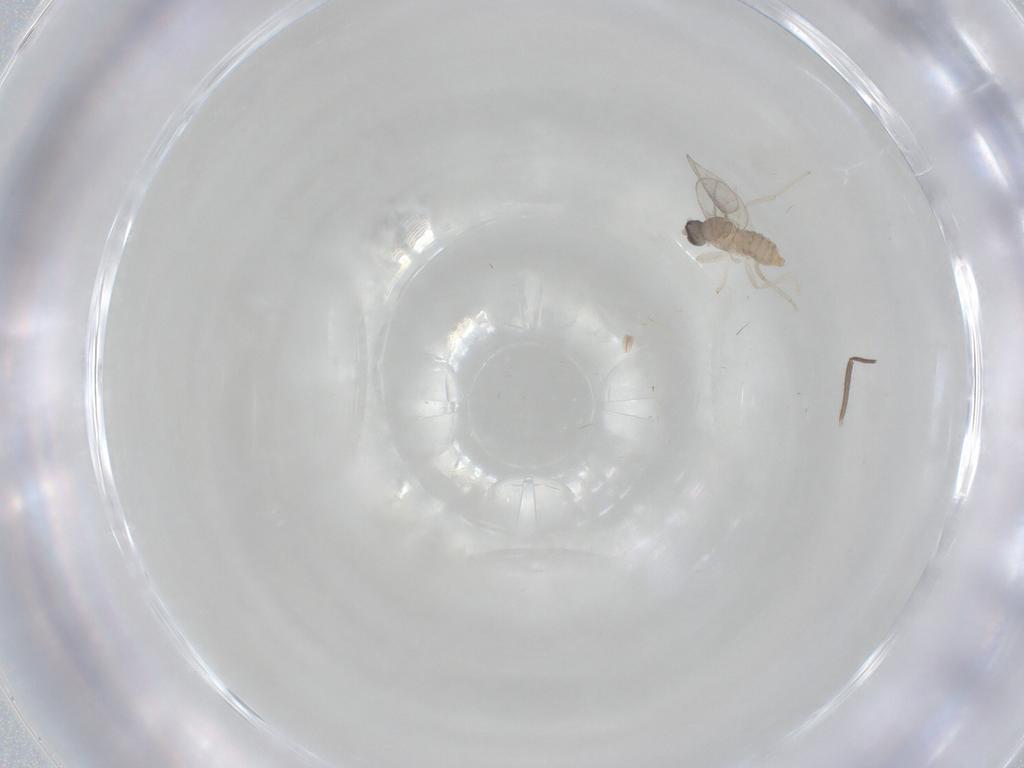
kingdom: Animalia
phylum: Arthropoda
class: Insecta
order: Diptera
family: Cecidomyiidae
